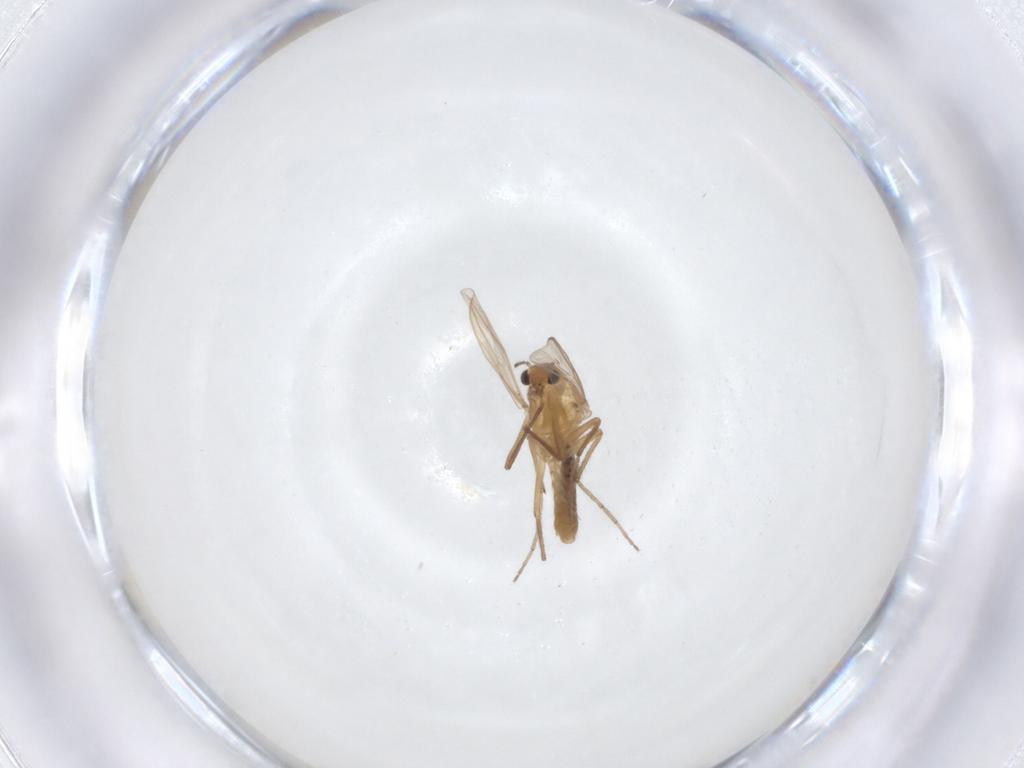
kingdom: Animalia
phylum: Arthropoda
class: Insecta
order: Diptera
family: Chironomidae
